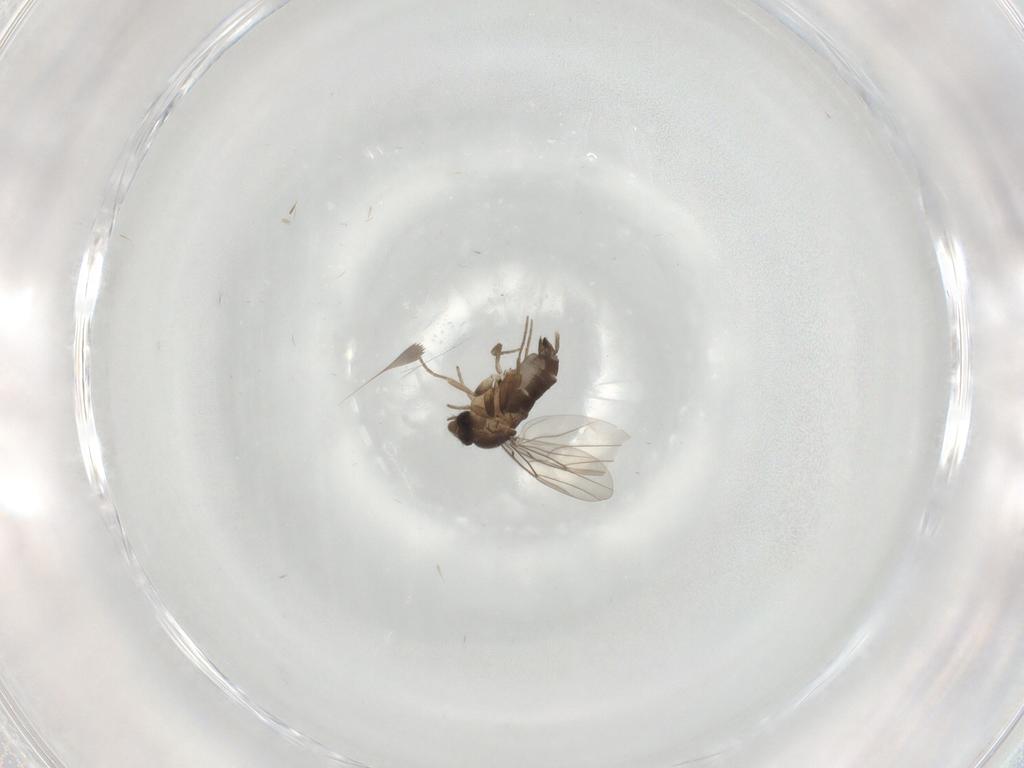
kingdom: Animalia
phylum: Arthropoda
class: Insecta
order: Diptera
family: Phoridae
